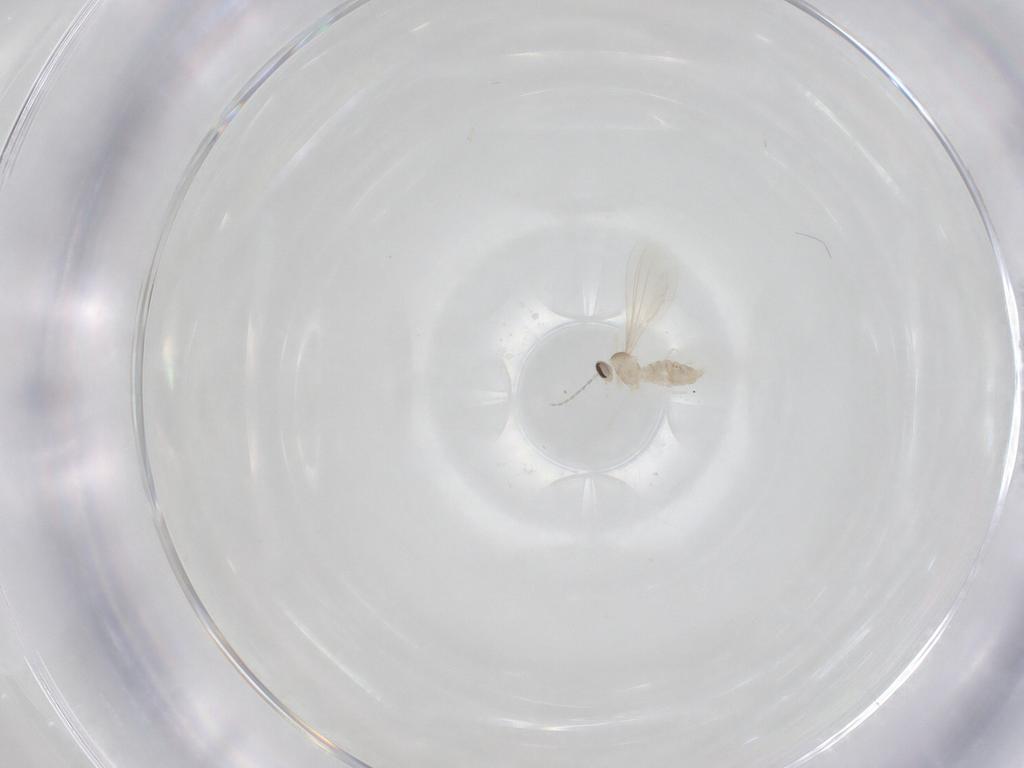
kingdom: Animalia
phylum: Arthropoda
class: Insecta
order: Diptera
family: Cecidomyiidae
